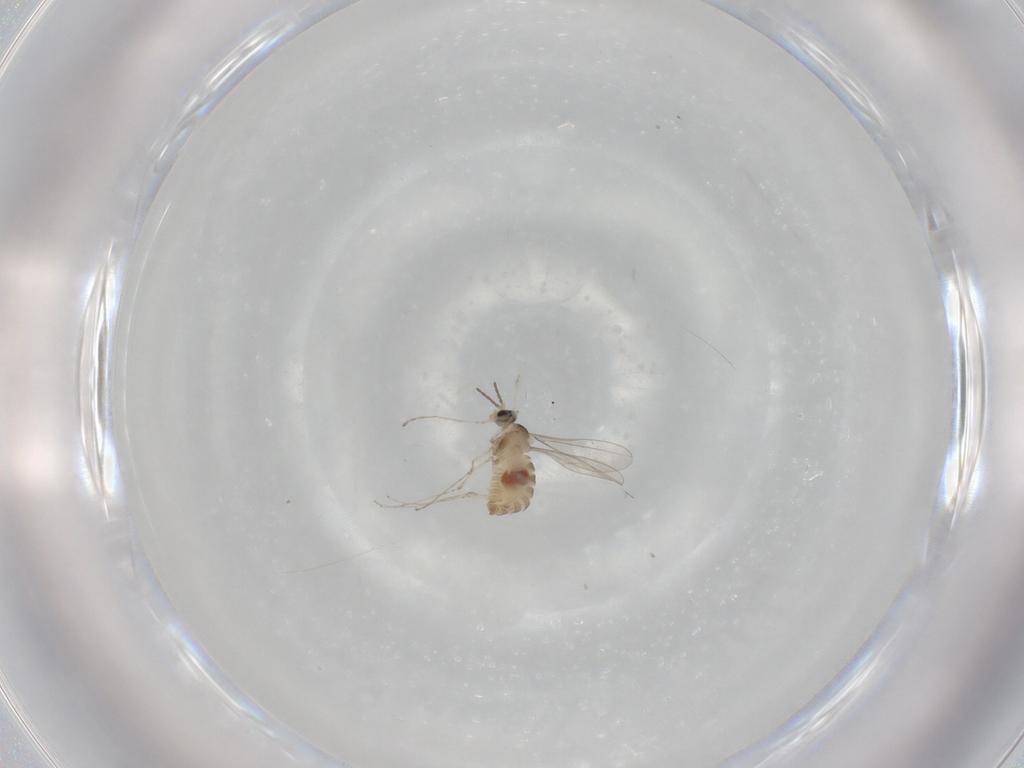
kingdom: Animalia
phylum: Arthropoda
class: Insecta
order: Diptera
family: Cecidomyiidae
